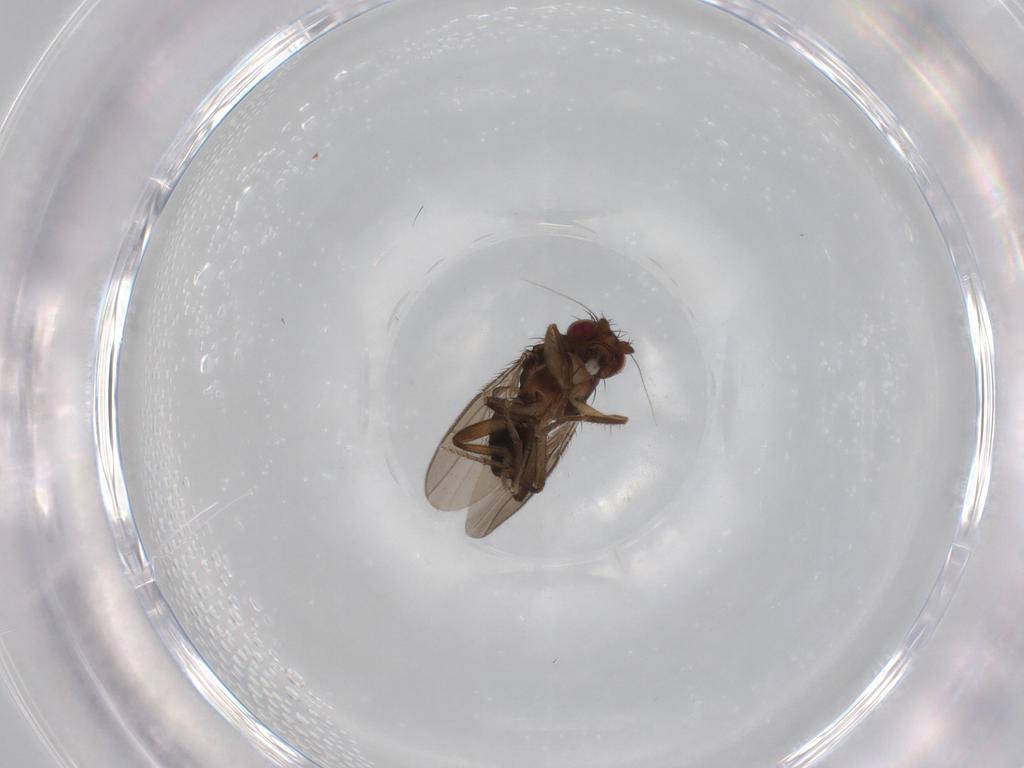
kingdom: Animalia
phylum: Arthropoda
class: Insecta
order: Diptera
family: Sphaeroceridae
